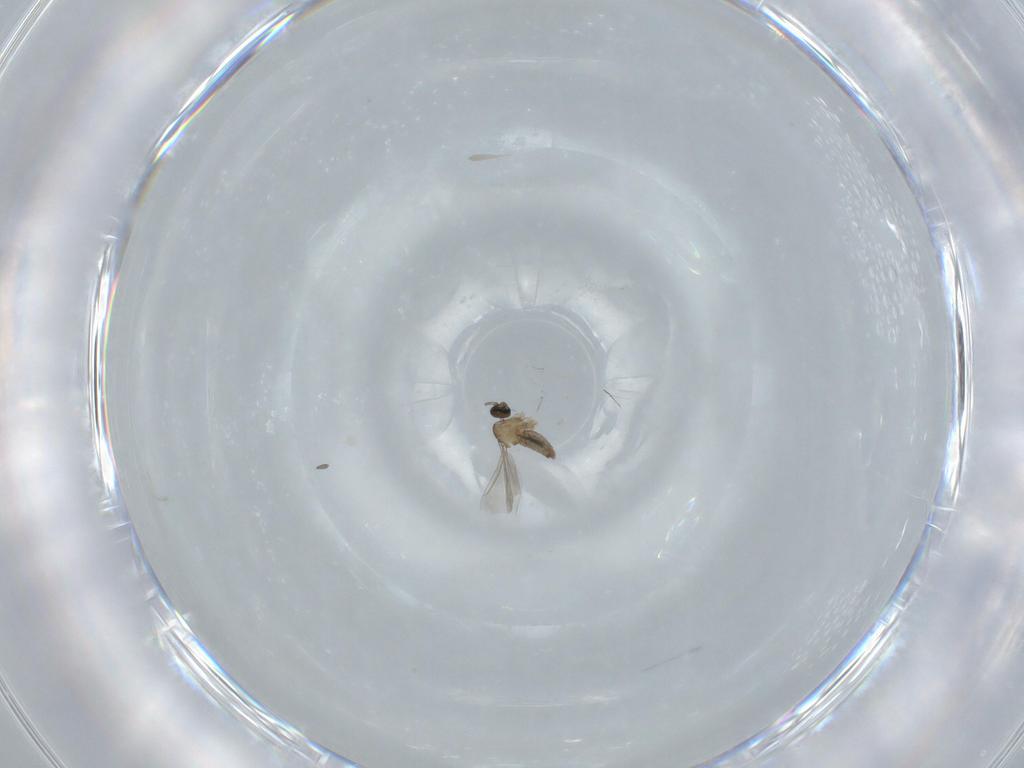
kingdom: Animalia
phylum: Arthropoda
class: Insecta
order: Diptera
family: Cecidomyiidae
